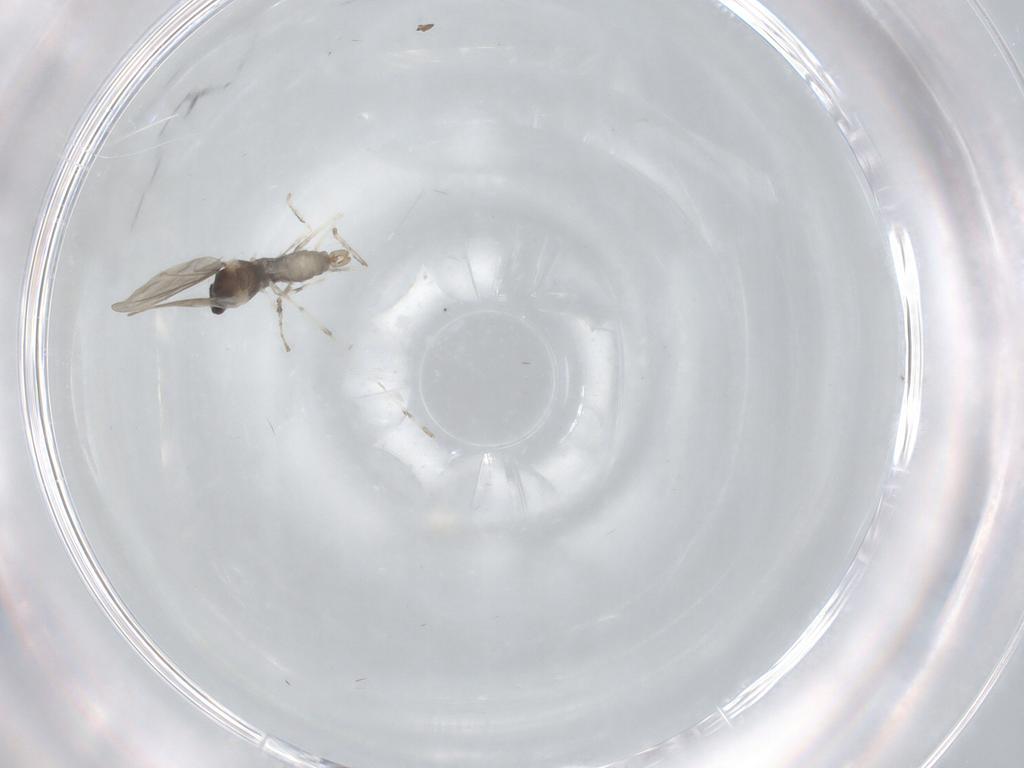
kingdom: Animalia
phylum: Arthropoda
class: Insecta
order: Diptera
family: Cecidomyiidae
